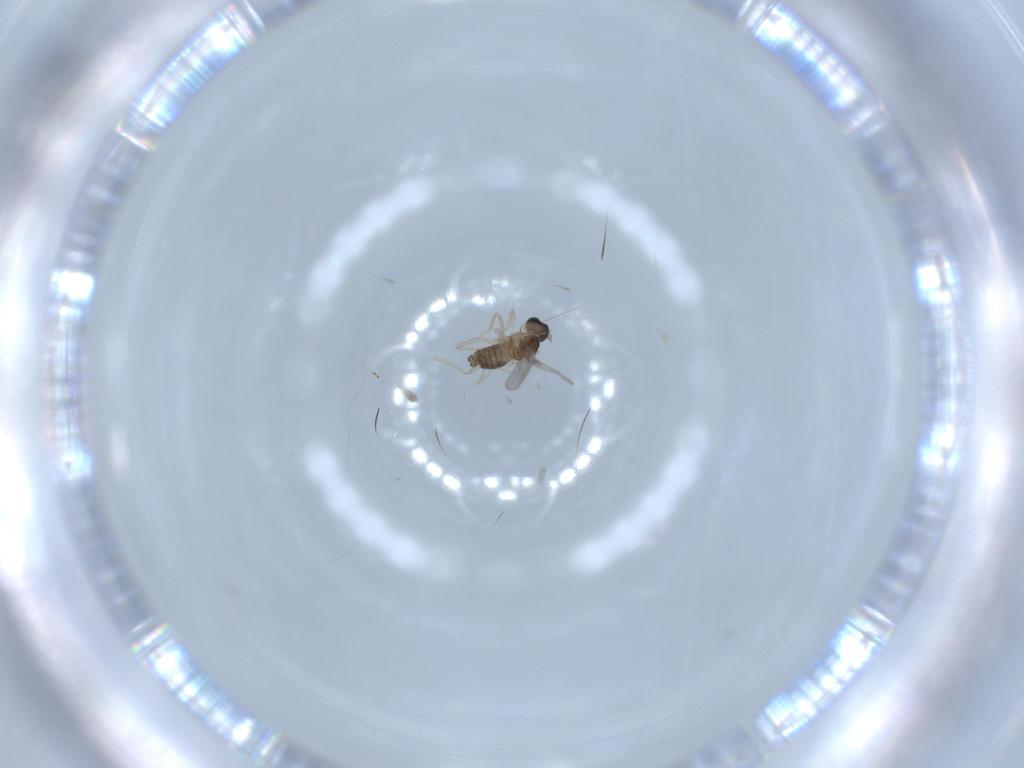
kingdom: Animalia
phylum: Arthropoda
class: Insecta
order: Diptera
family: Cecidomyiidae
